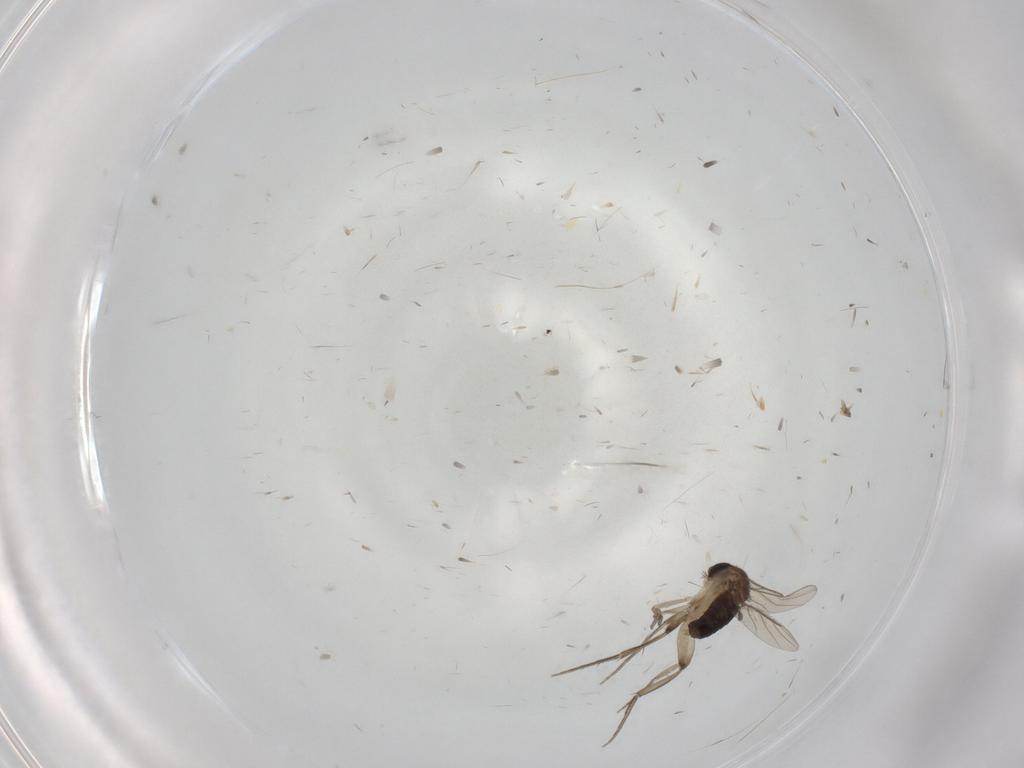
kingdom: Animalia
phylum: Arthropoda
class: Insecta
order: Diptera
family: Phoridae
